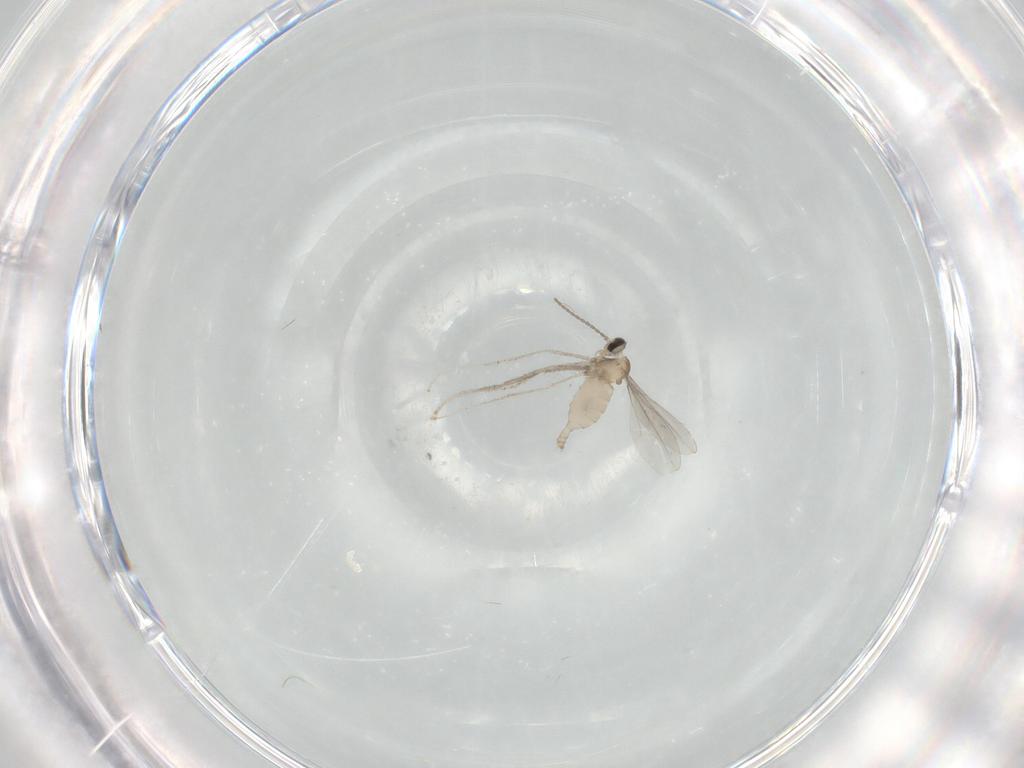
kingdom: Animalia
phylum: Arthropoda
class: Insecta
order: Diptera
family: Cecidomyiidae
